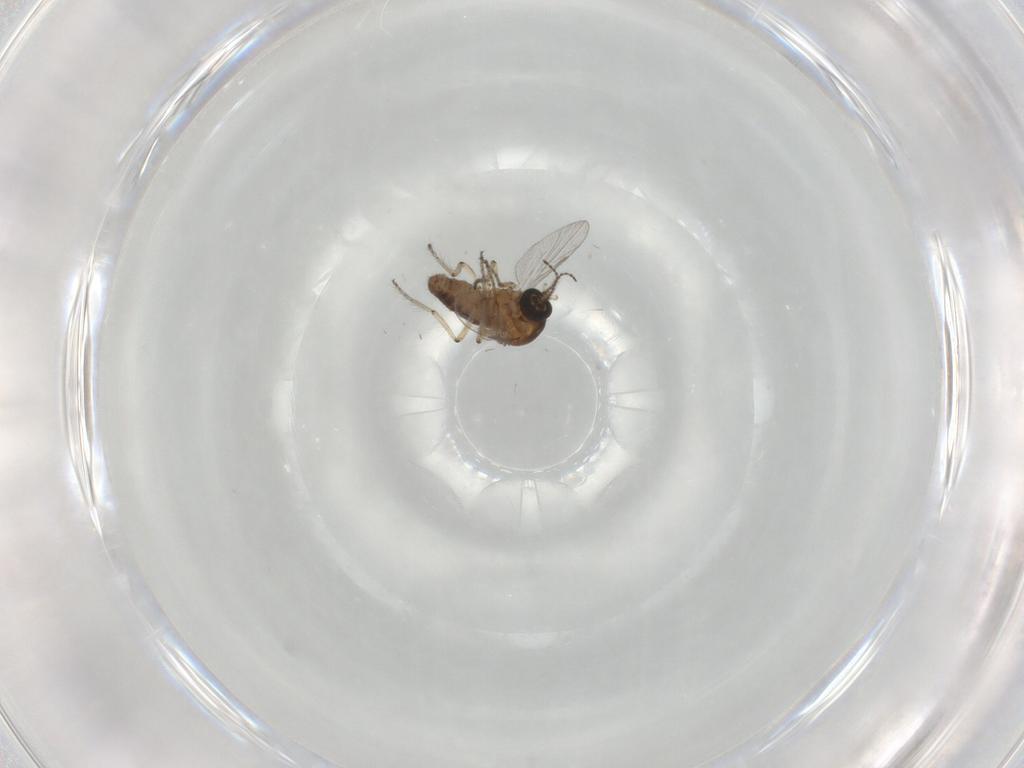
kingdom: Animalia
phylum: Arthropoda
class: Insecta
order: Diptera
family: Ceratopogonidae
